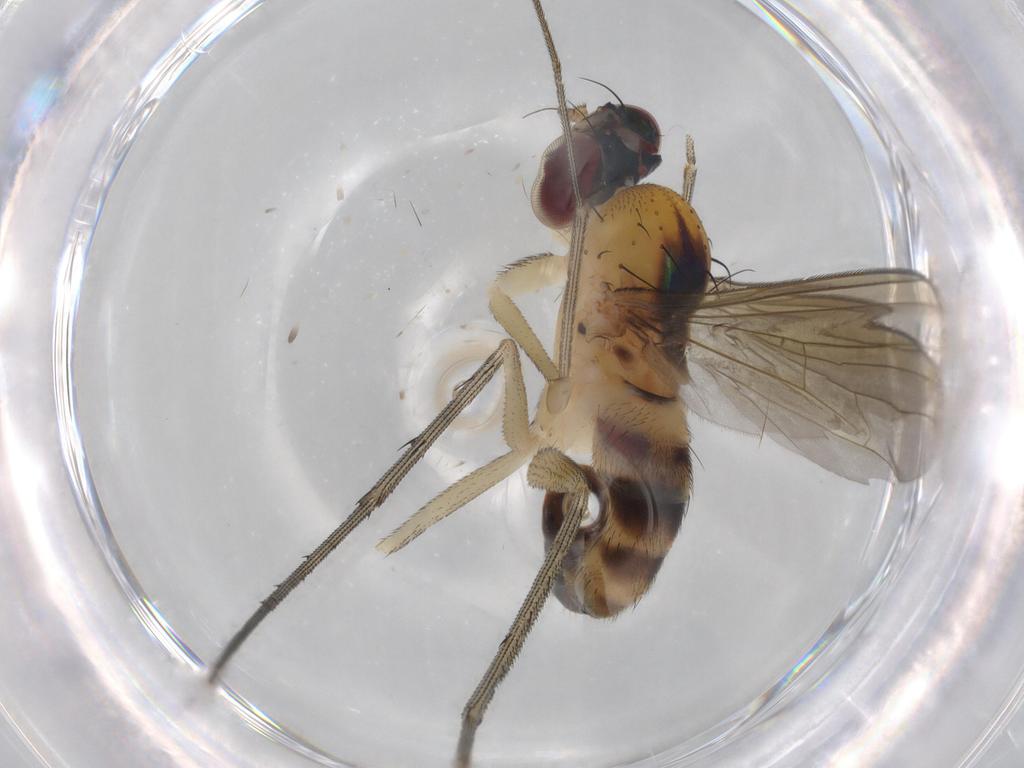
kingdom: Animalia
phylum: Arthropoda
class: Insecta
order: Diptera
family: Dolichopodidae
